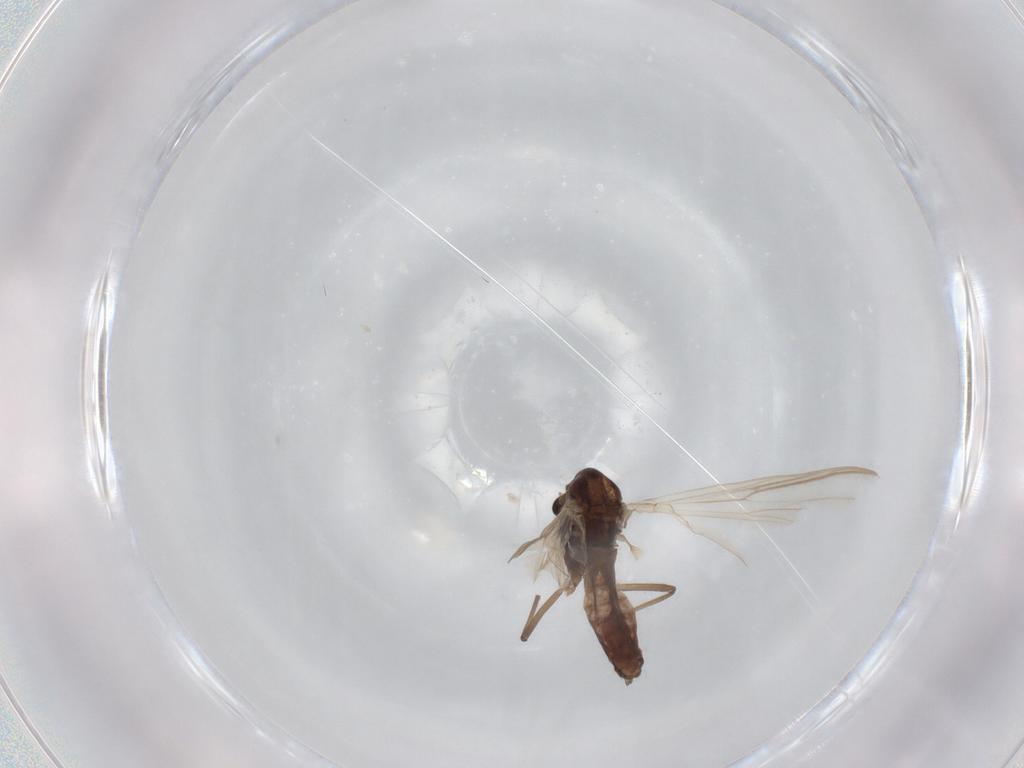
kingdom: Animalia
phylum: Arthropoda
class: Insecta
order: Diptera
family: Chironomidae
